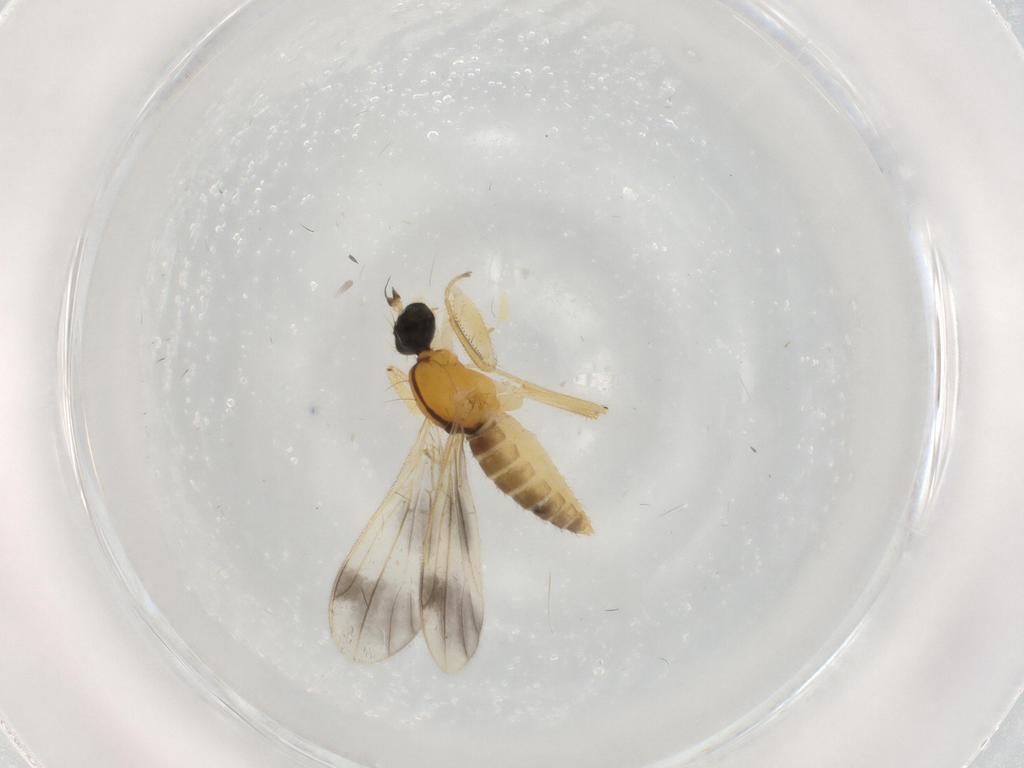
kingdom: Animalia
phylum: Arthropoda
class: Insecta
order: Diptera
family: Empididae
